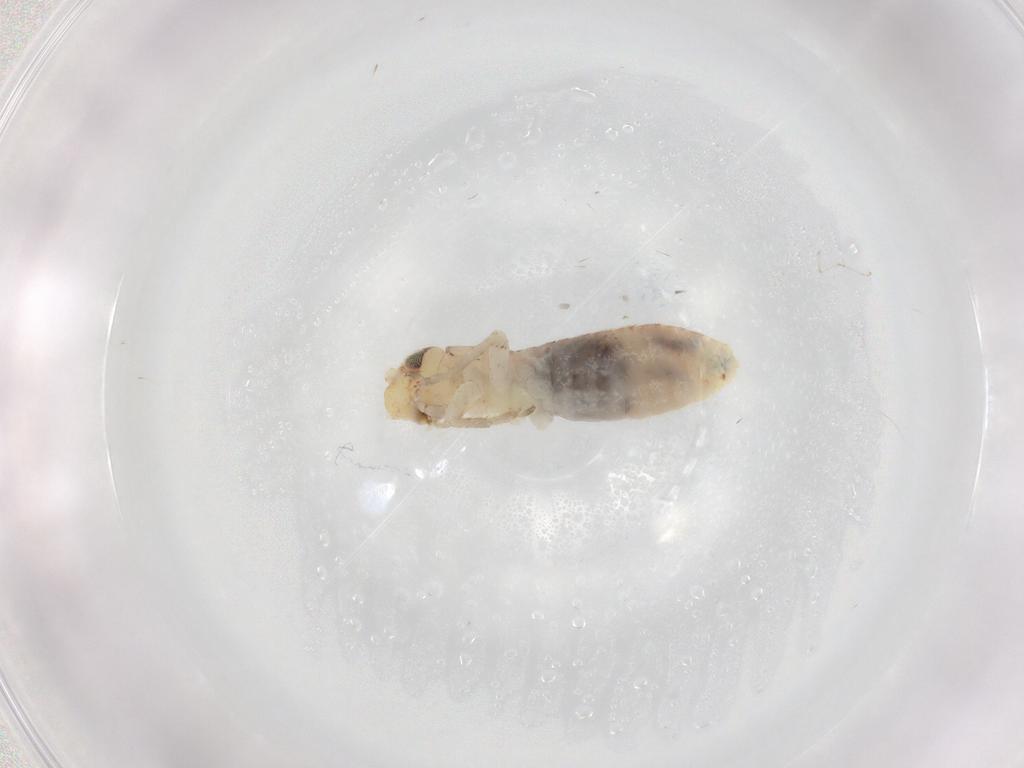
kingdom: Animalia
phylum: Arthropoda
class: Insecta
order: Orthoptera
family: Gryllidae
